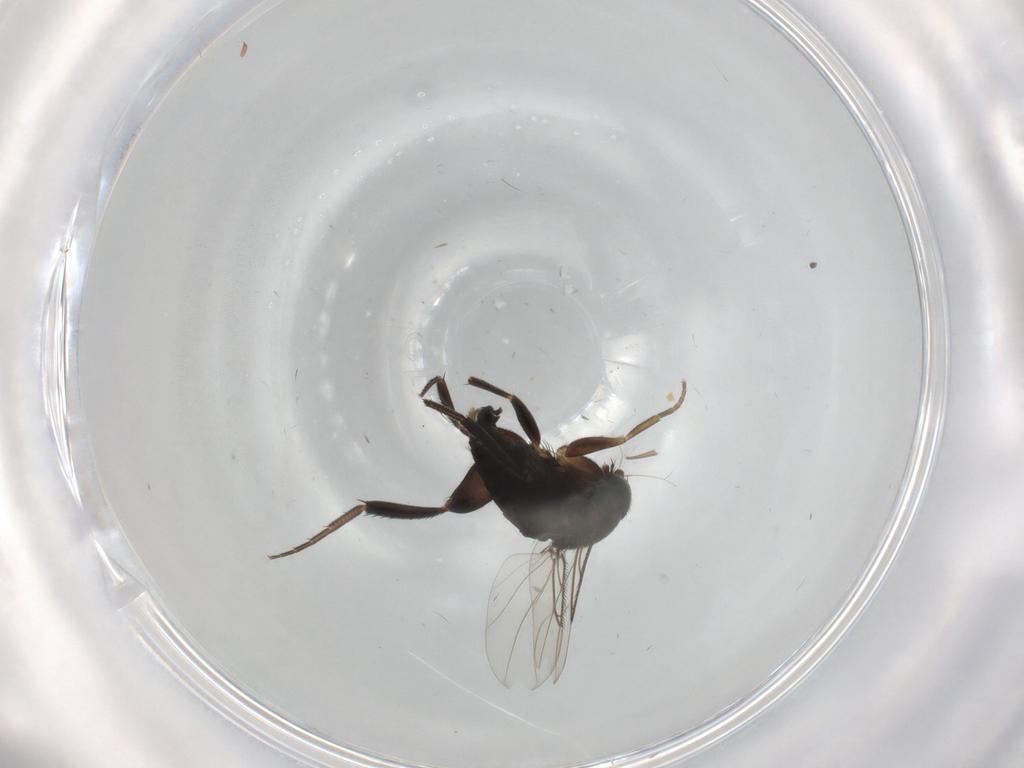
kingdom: Animalia
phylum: Arthropoda
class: Insecta
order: Diptera
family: Phoridae
